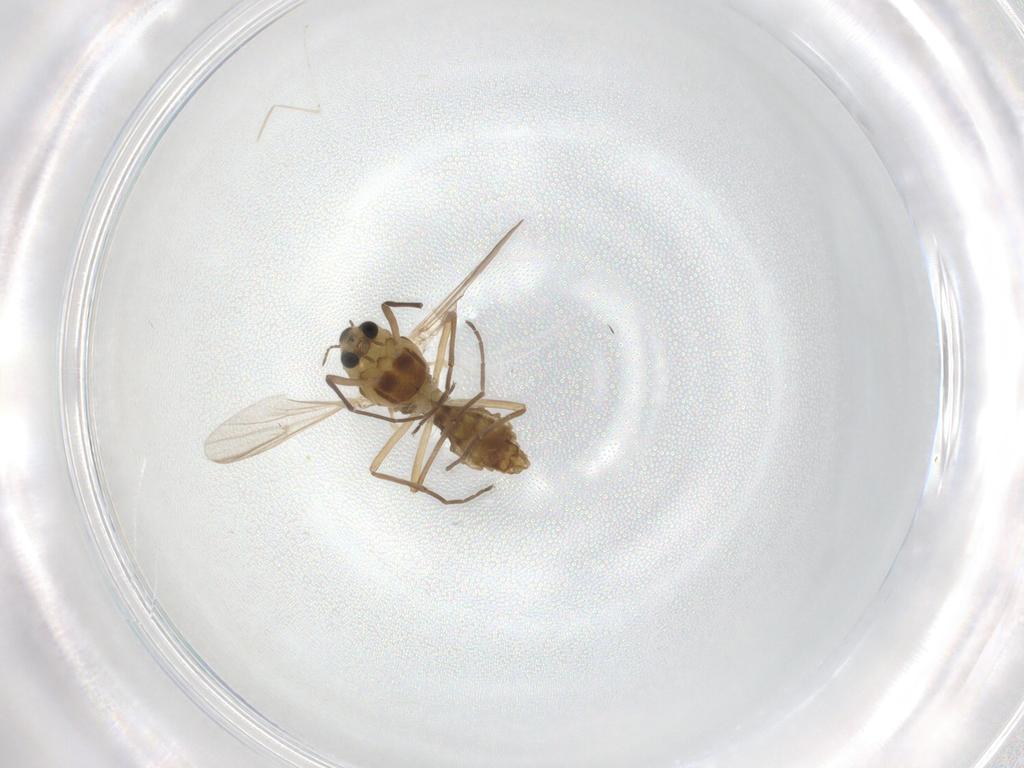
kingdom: Animalia
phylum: Arthropoda
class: Insecta
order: Diptera
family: Chironomidae
